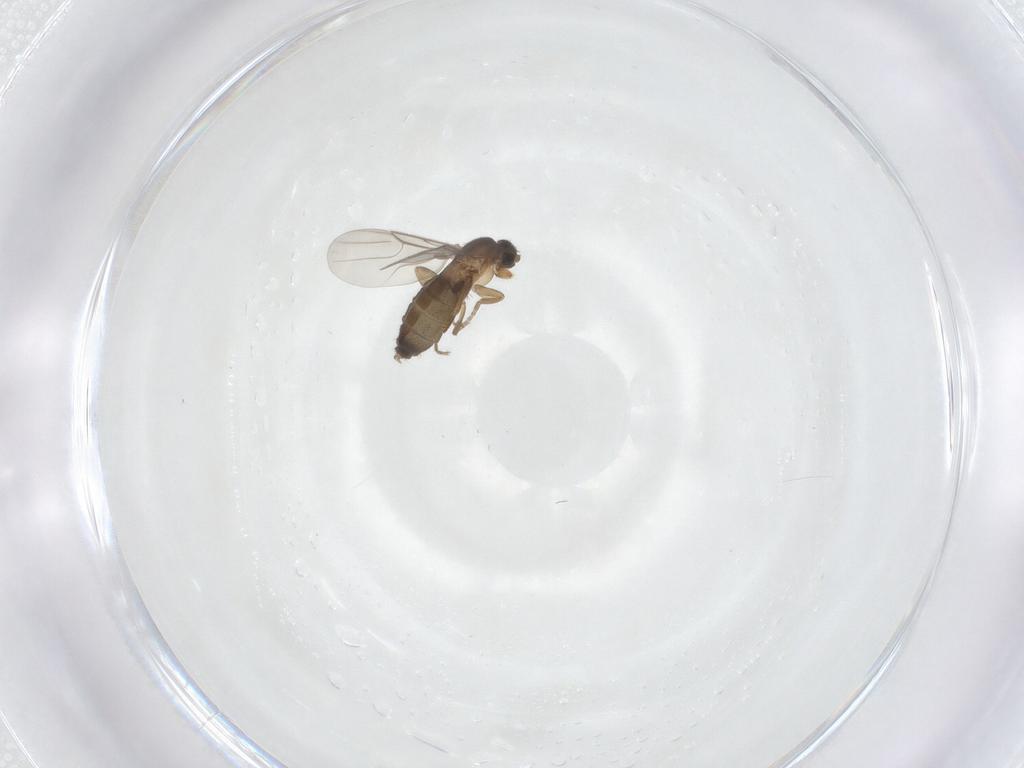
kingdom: Animalia
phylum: Arthropoda
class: Insecta
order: Diptera
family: Phoridae
